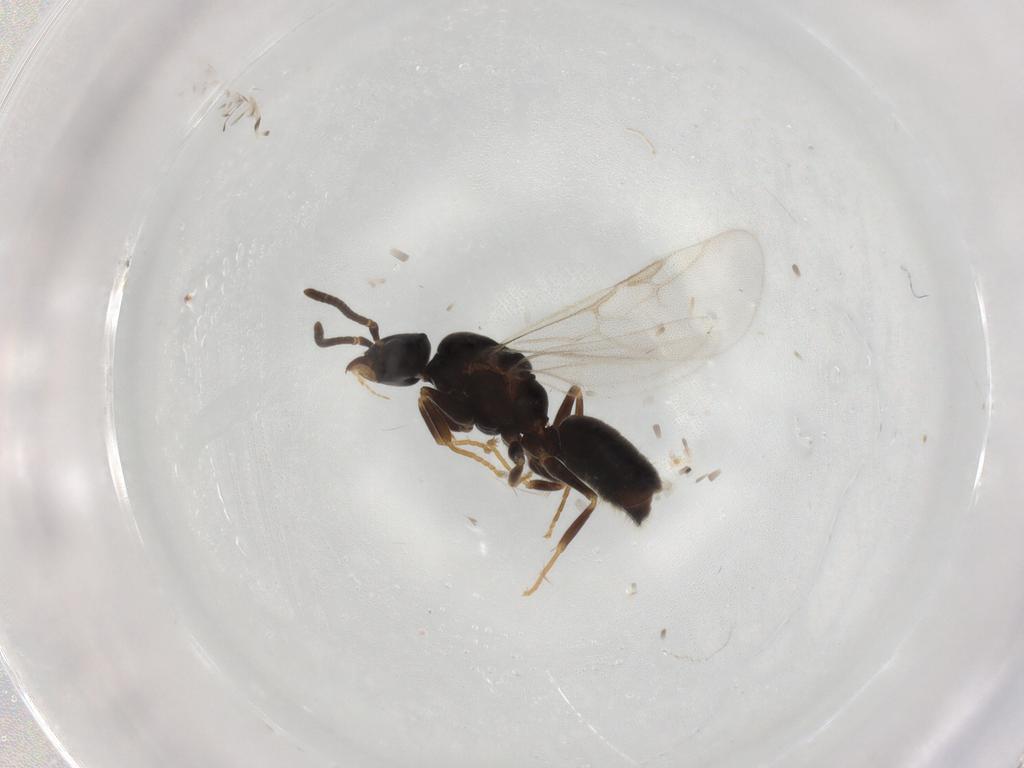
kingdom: Animalia
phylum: Arthropoda
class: Insecta
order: Hymenoptera
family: Formicidae
